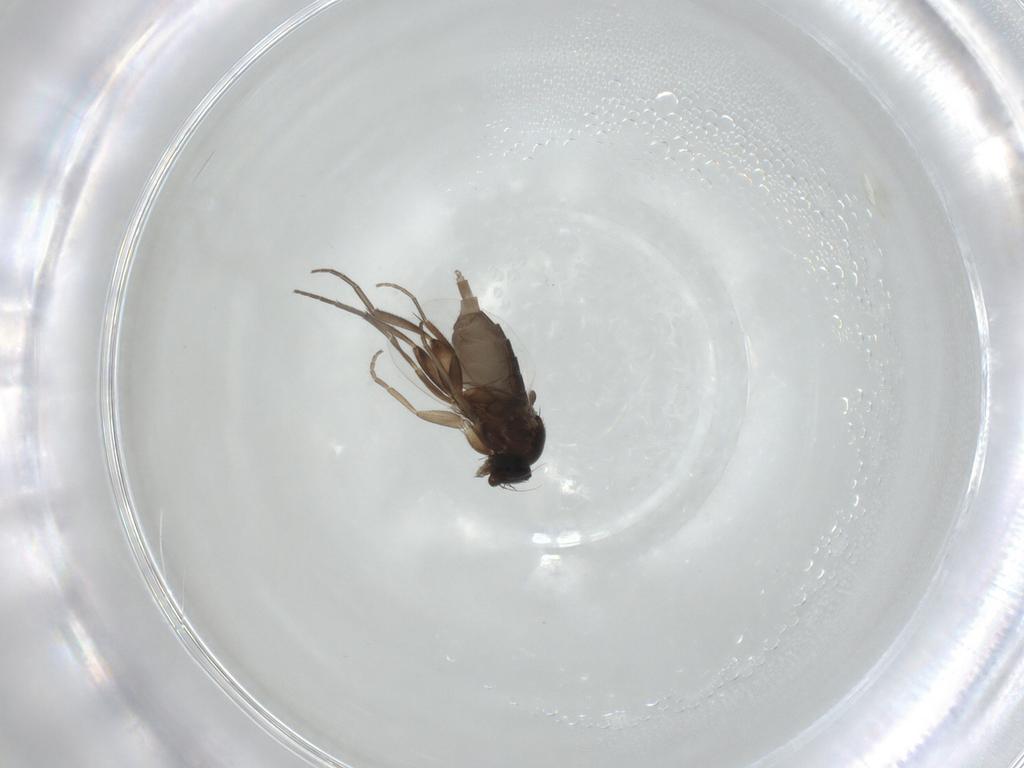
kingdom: Animalia
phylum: Arthropoda
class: Insecta
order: Diptera
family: Phoridae
